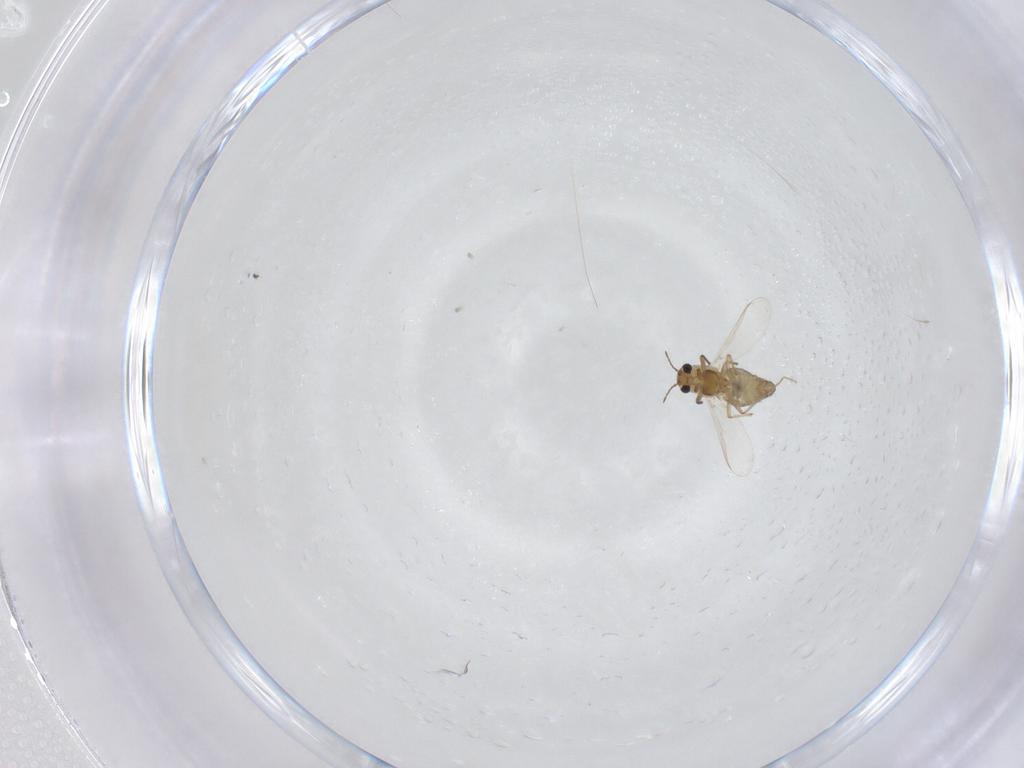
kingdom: Animalia
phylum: Arthropoda
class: Insecta
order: Diptera
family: Chironomidae
